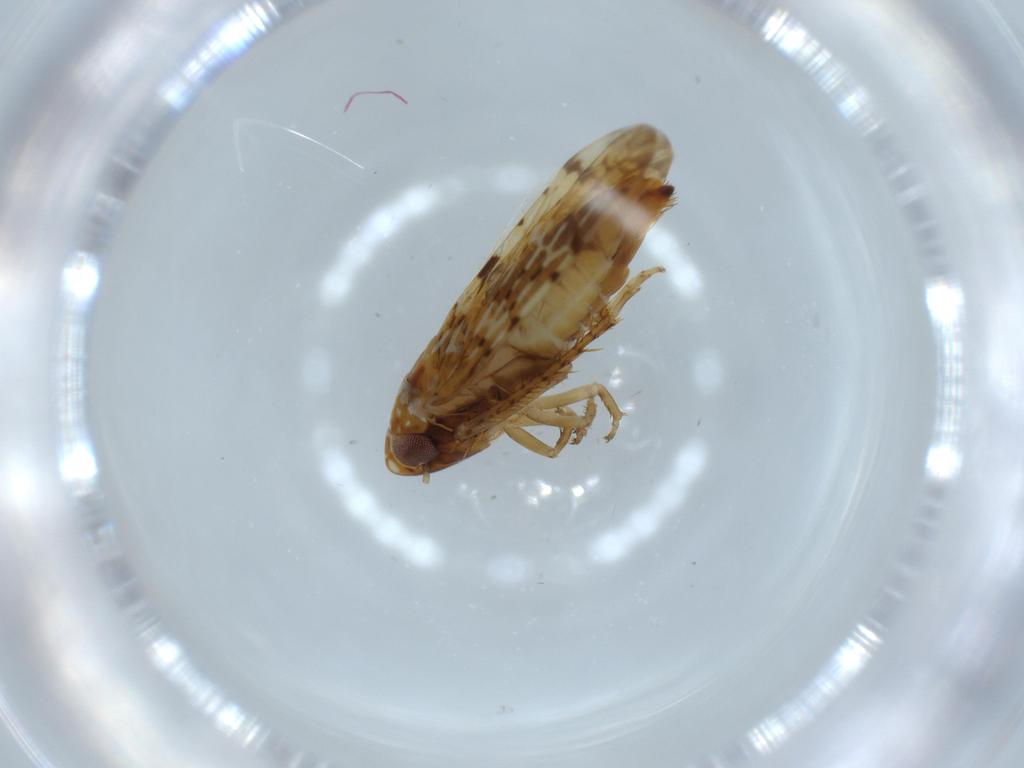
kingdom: Animalia
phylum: Arthropoda
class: Insecta
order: Hemiptera
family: Cicadellidae
